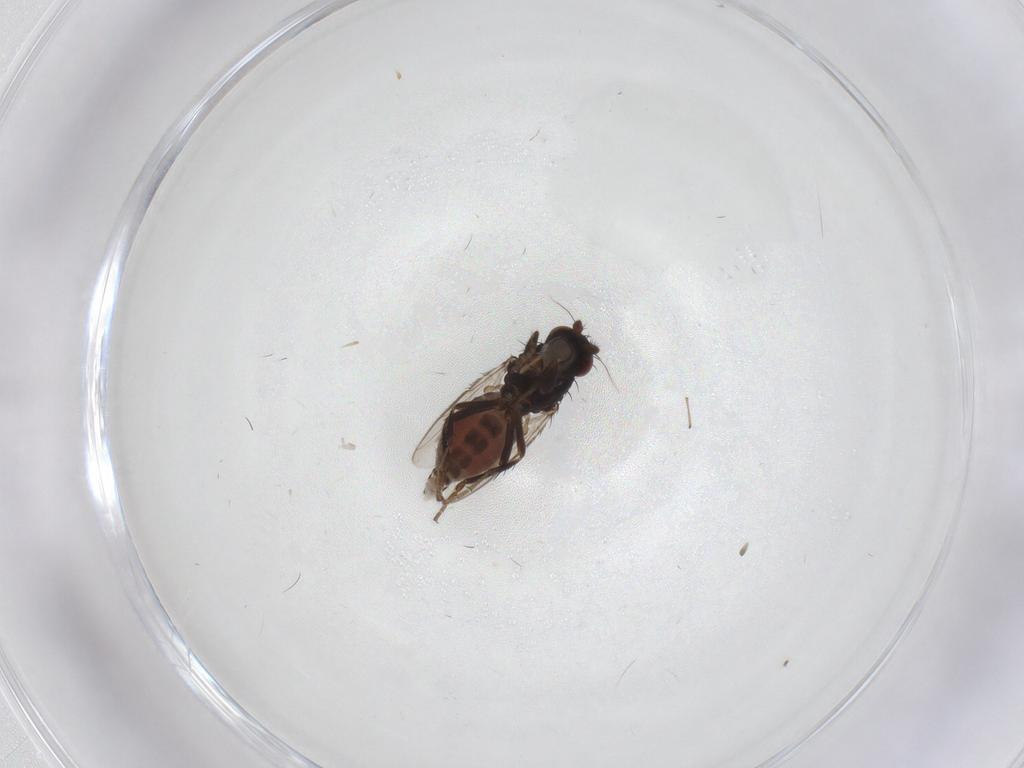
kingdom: Animalia
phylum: Arthropoda
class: Insecta
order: Diptera
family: Sphaeroceridae
